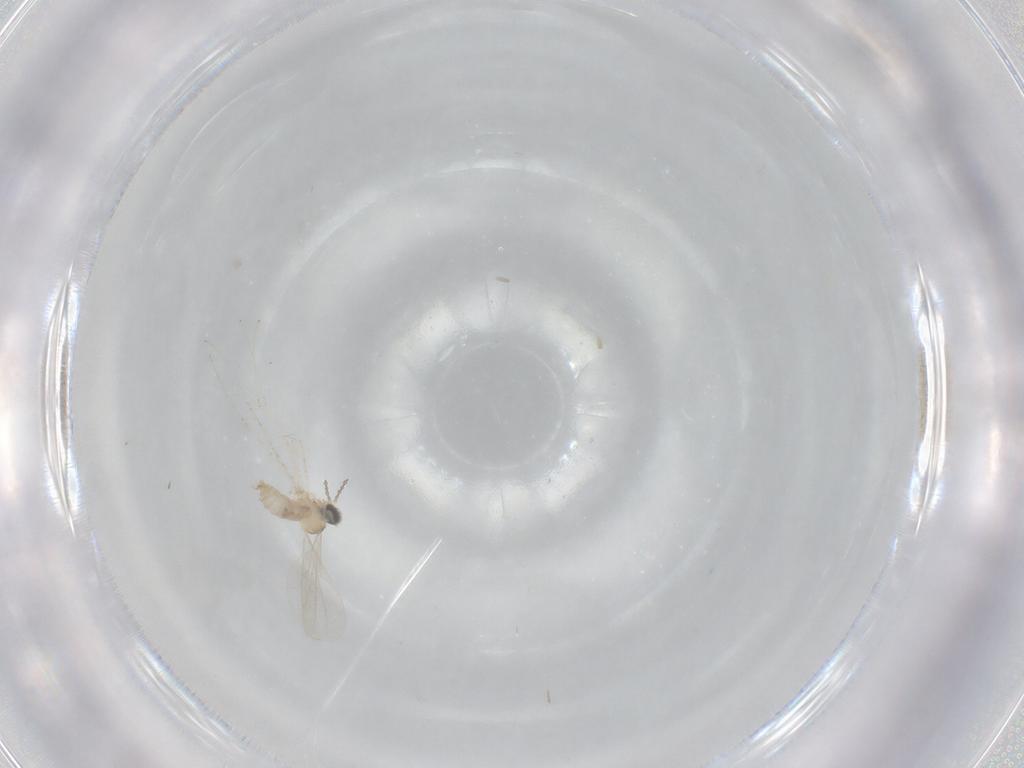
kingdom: Animalia
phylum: Arthropoda
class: Insecta
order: Diptera
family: Cecidomyiidae
